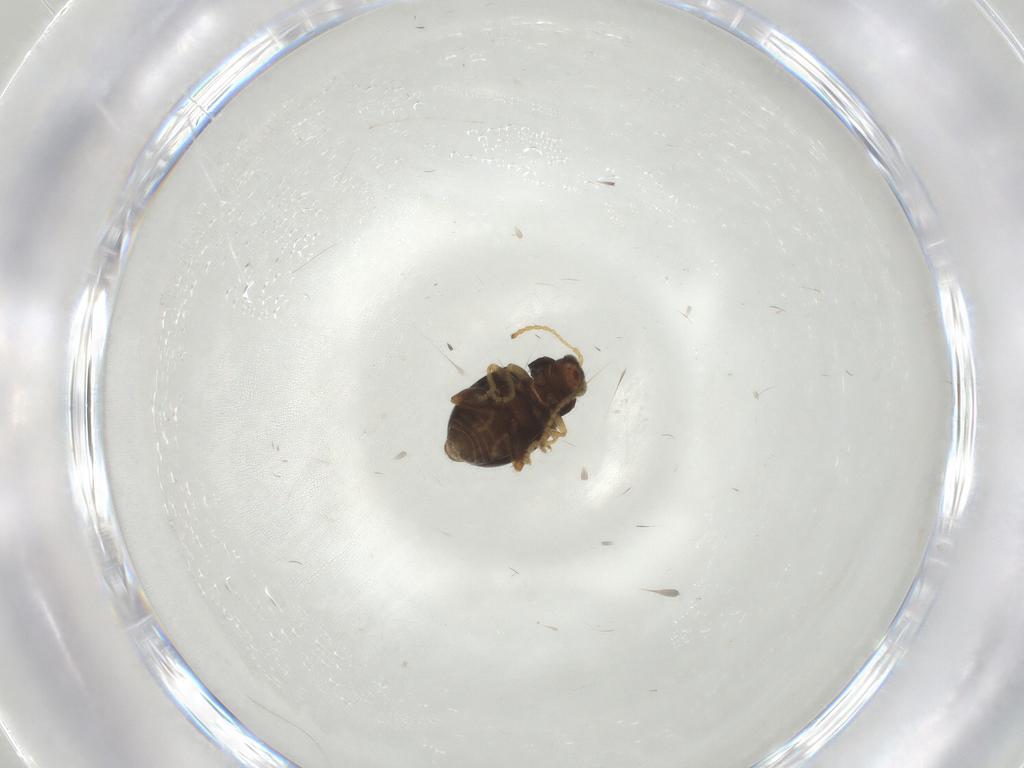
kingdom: Animalia
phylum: Arthropoda
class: Insecta
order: Coleoptera
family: Chrysomelidae
